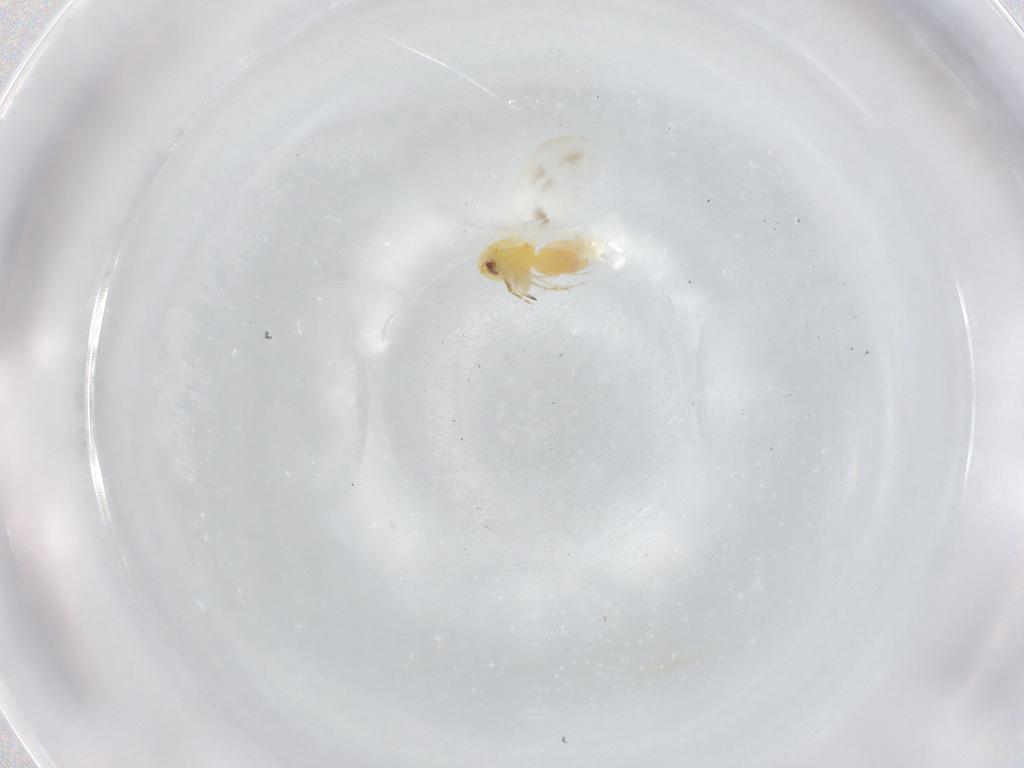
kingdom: Animalia
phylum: Arthropoda
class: Insecta
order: Hemiptera
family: Aleyrodidae
